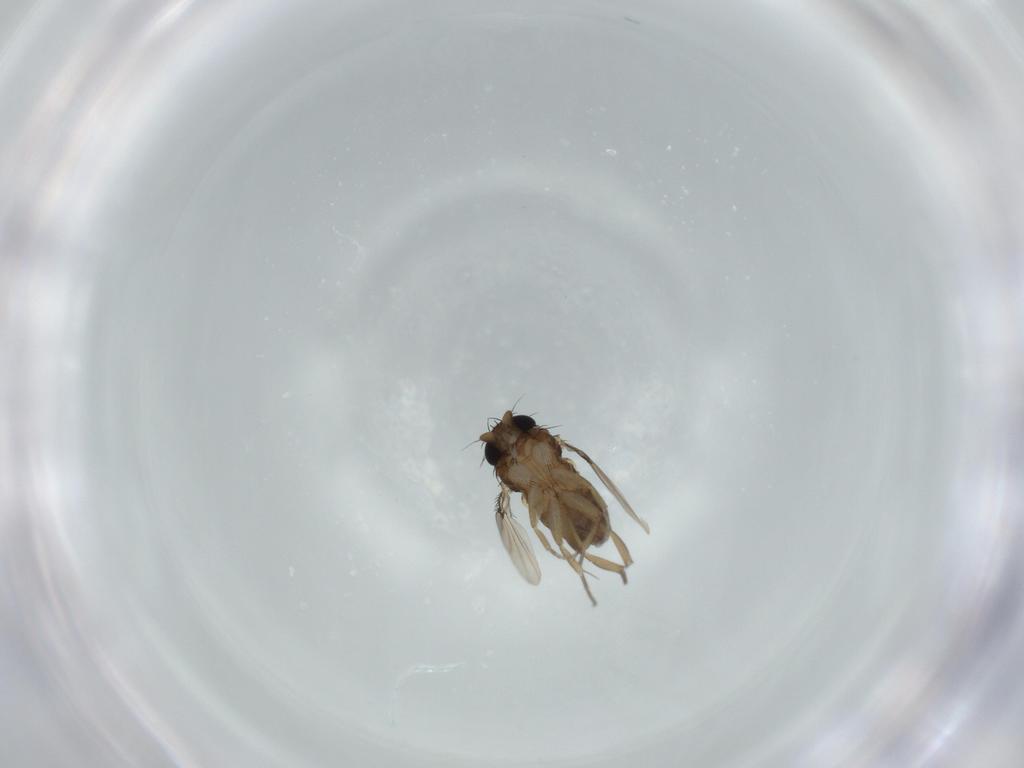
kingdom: Animalia
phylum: Arthropoda
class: Insecta
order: Diptera
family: Phoridae
